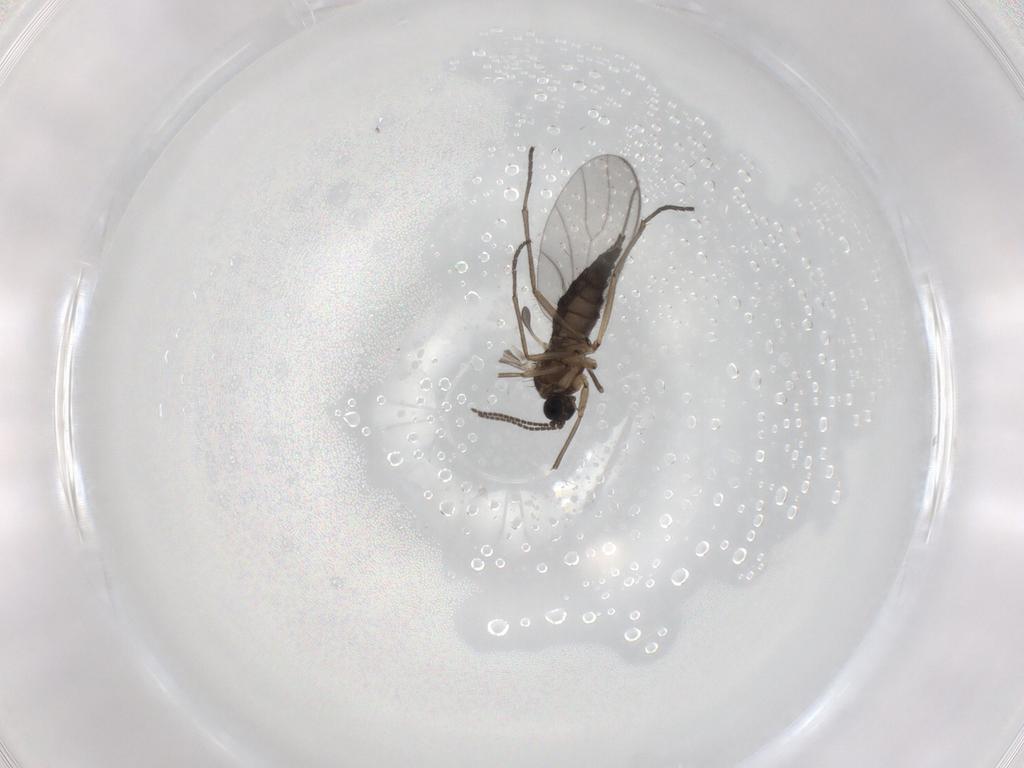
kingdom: Animalia
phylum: Arthropoda
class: Insecta
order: Diptera
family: Sciaridae
